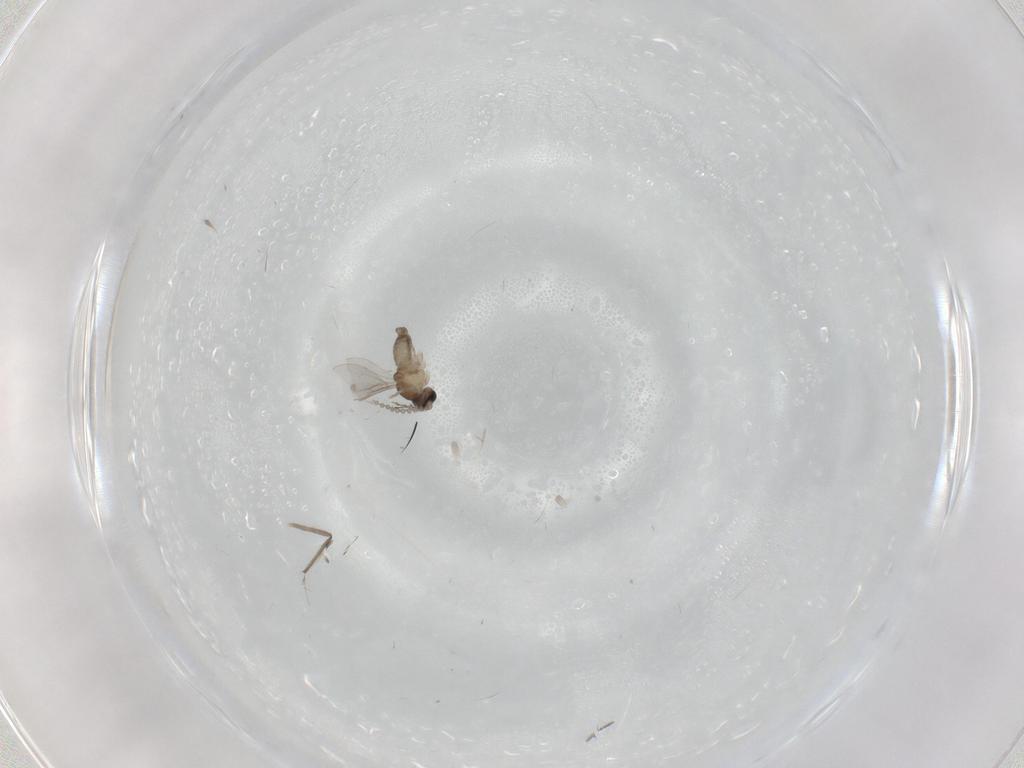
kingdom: Animalia
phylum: Arthropoda
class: Insecta
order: Diptera
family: Cecidomyiidae
